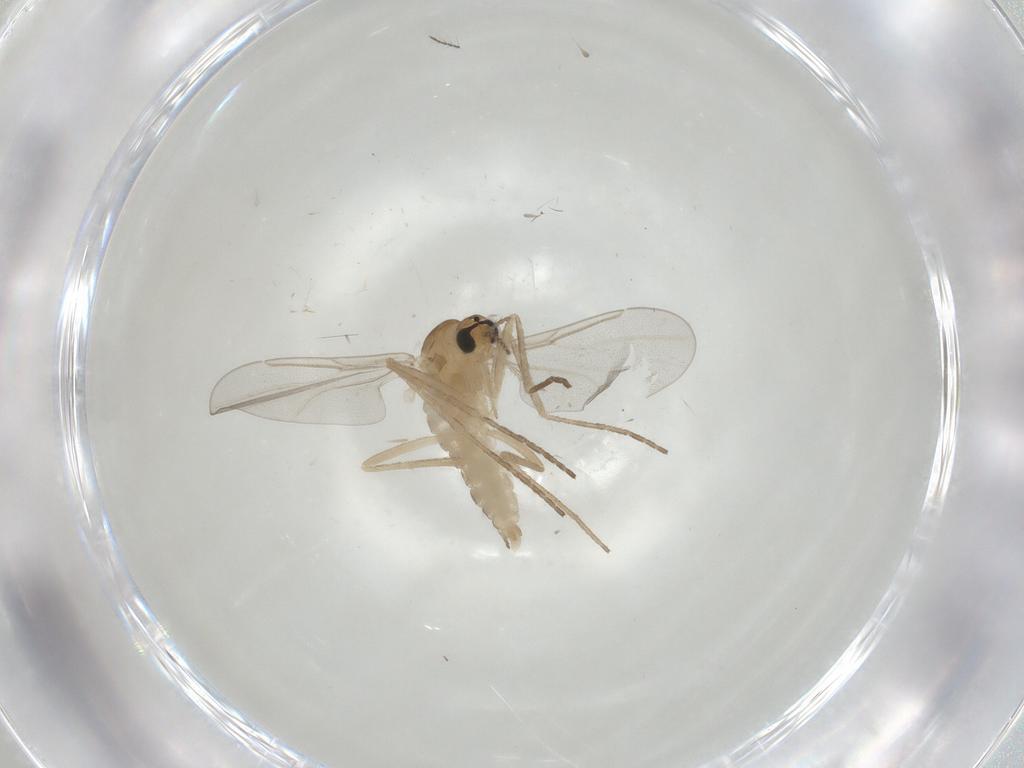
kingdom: Animalia
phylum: Arthropoda
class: Insecta
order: Diptera
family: Cecidomyiidae
